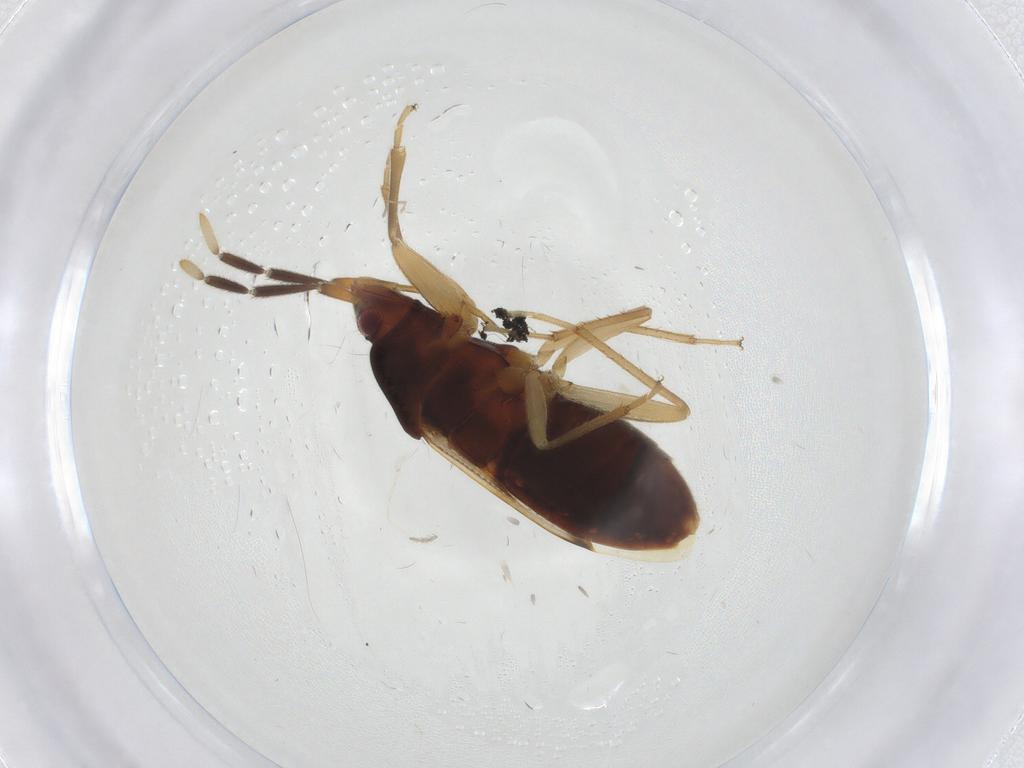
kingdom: Animalia
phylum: Arthropoda
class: Insecta
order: Hemiptera
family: Rhyparochromidae
